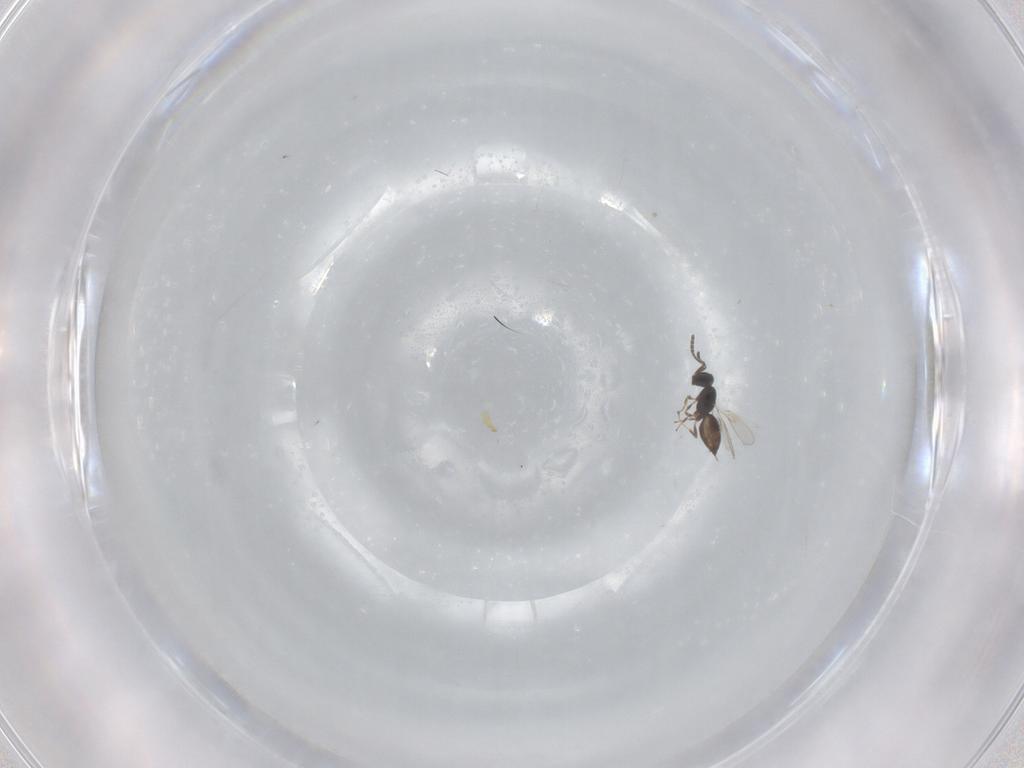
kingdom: Animalia
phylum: Arthropoda
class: Insecta
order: Hymenoptera
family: Scelionidae
